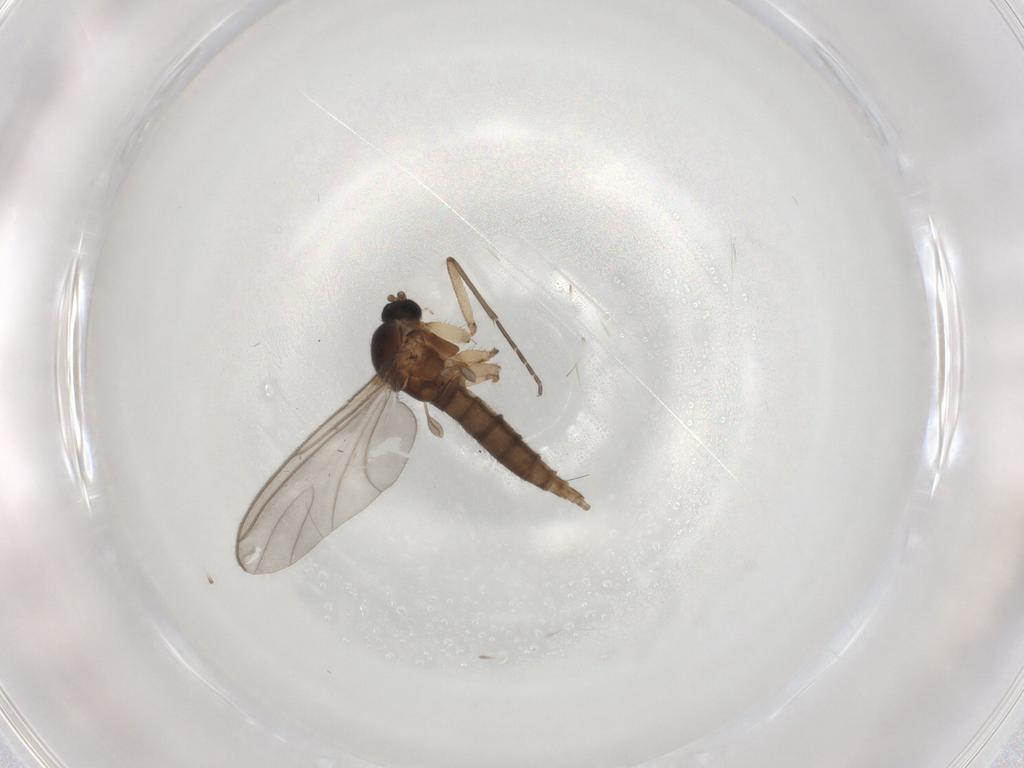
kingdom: Animalia
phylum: Arthropoda
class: Insecta
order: Diptera
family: Sciaridae
